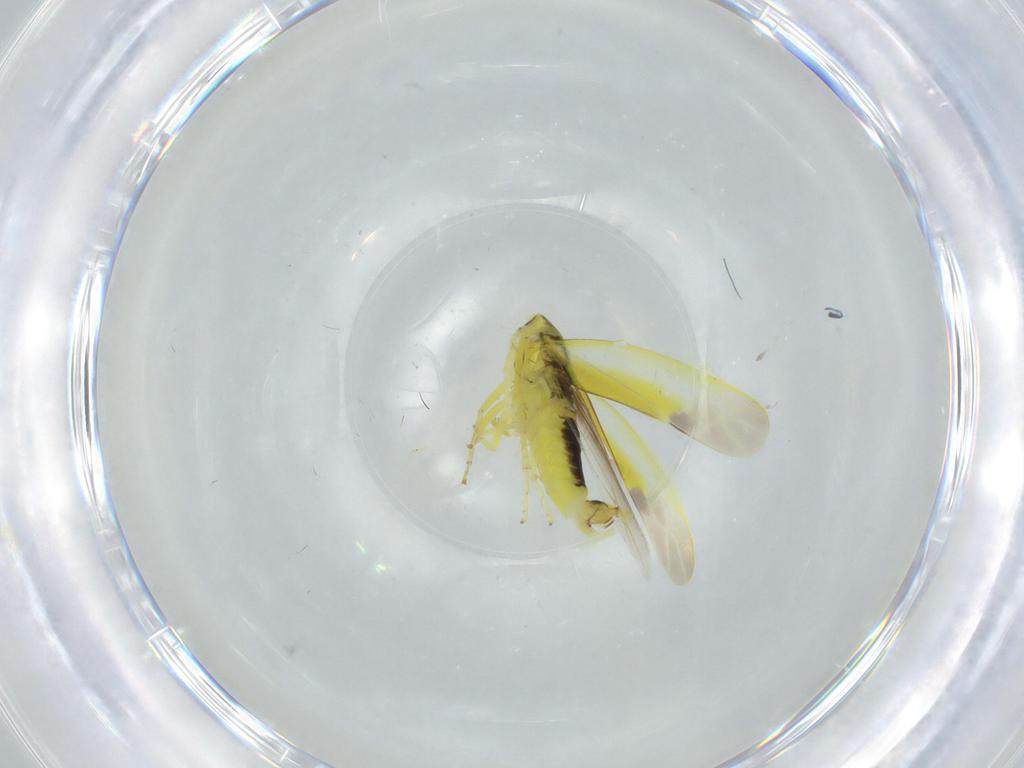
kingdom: Animalia
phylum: Arthropoda
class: Insecta
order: Hemiptera
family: Cicadellidae
